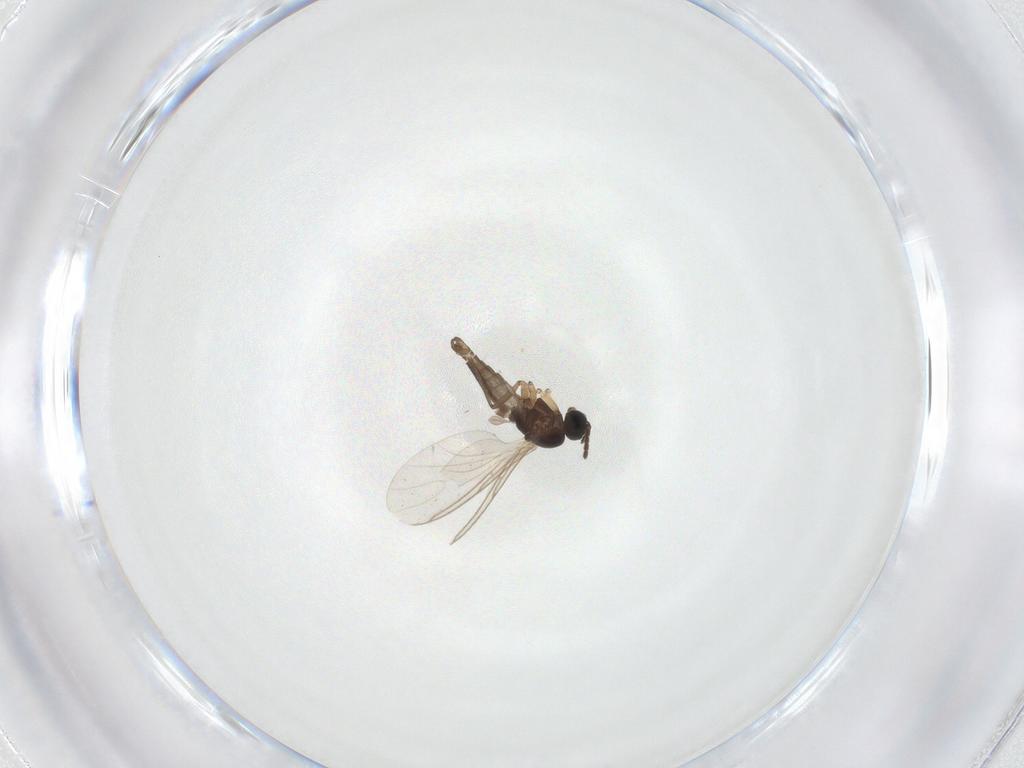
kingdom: Animalia
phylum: Arthropoda
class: Insecta
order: Diptera
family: Sciaridae
